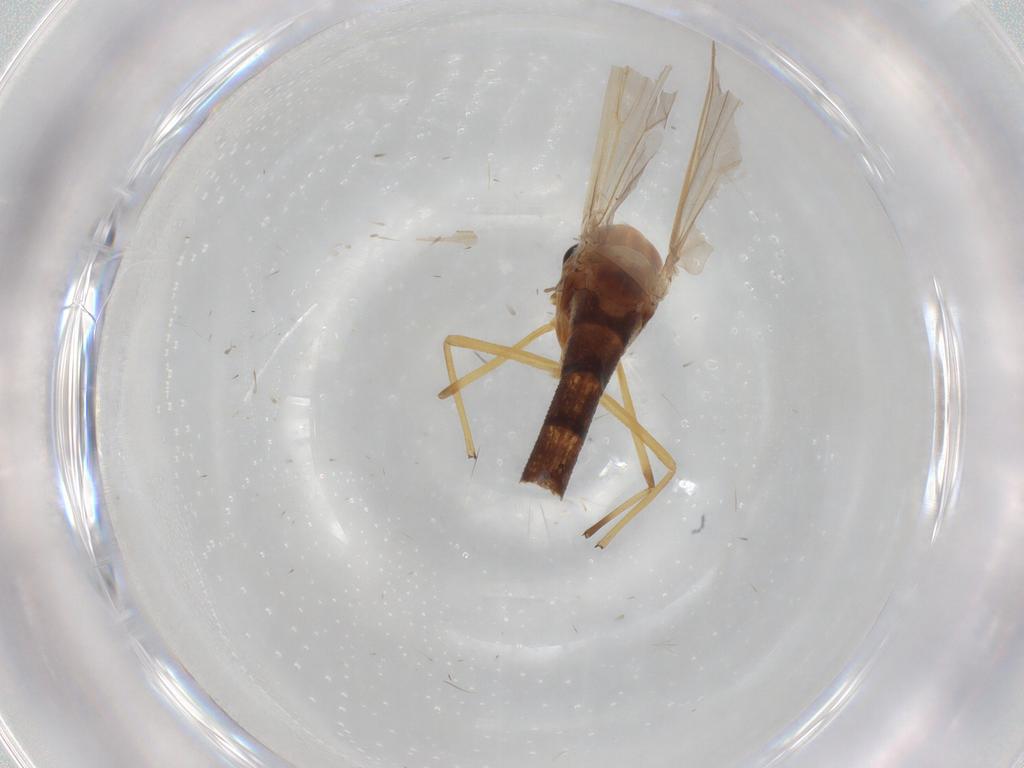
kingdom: Animalia
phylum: Arthropoda
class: Insecta
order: Diptera
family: Chironomidae
